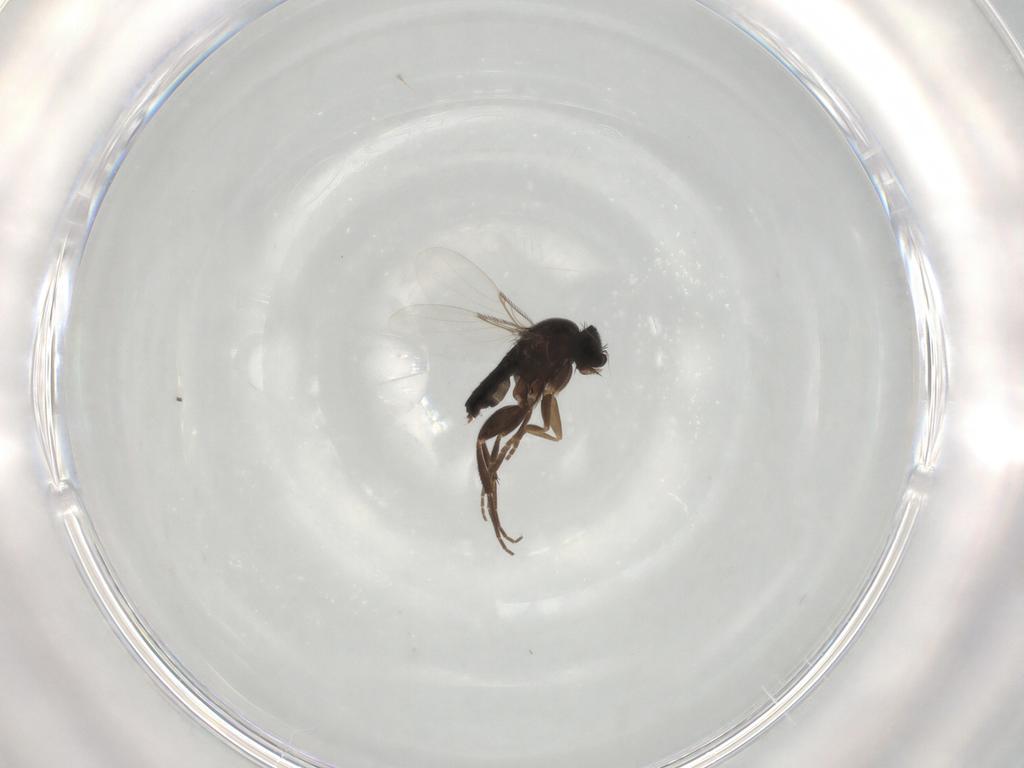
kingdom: Animalia
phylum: Arthropoda
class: Insecta
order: Diptera
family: Phoridae
